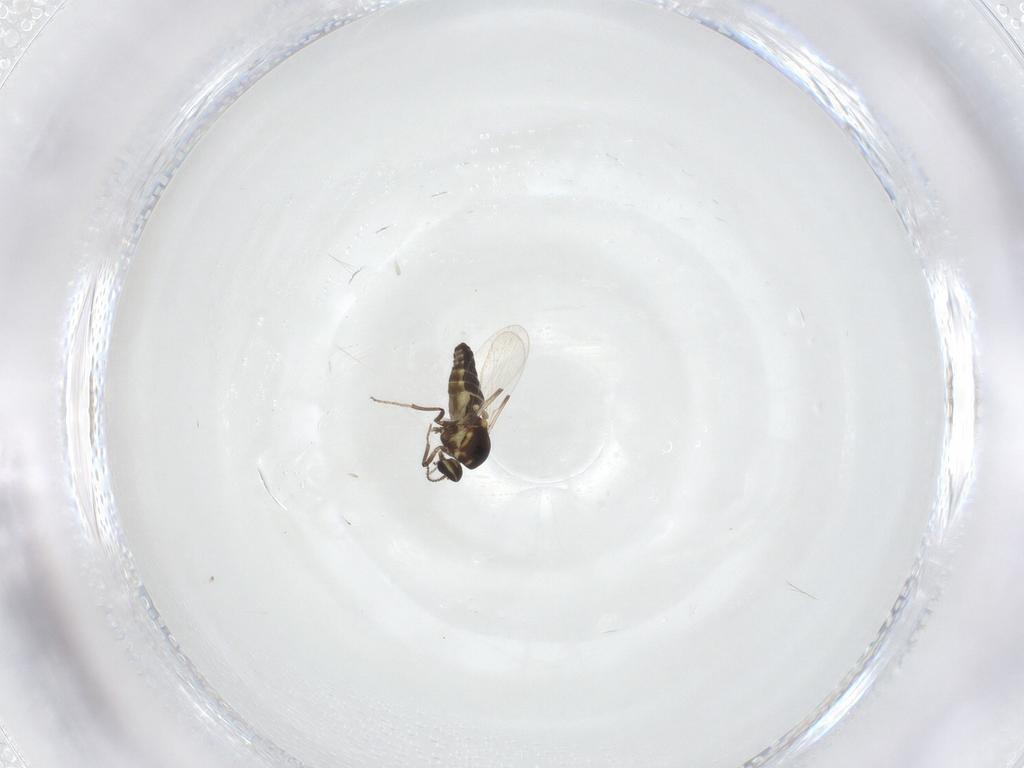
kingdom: Animalia
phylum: Arthropoda
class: Insecta
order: Diptera
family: Ceratopogonidae
